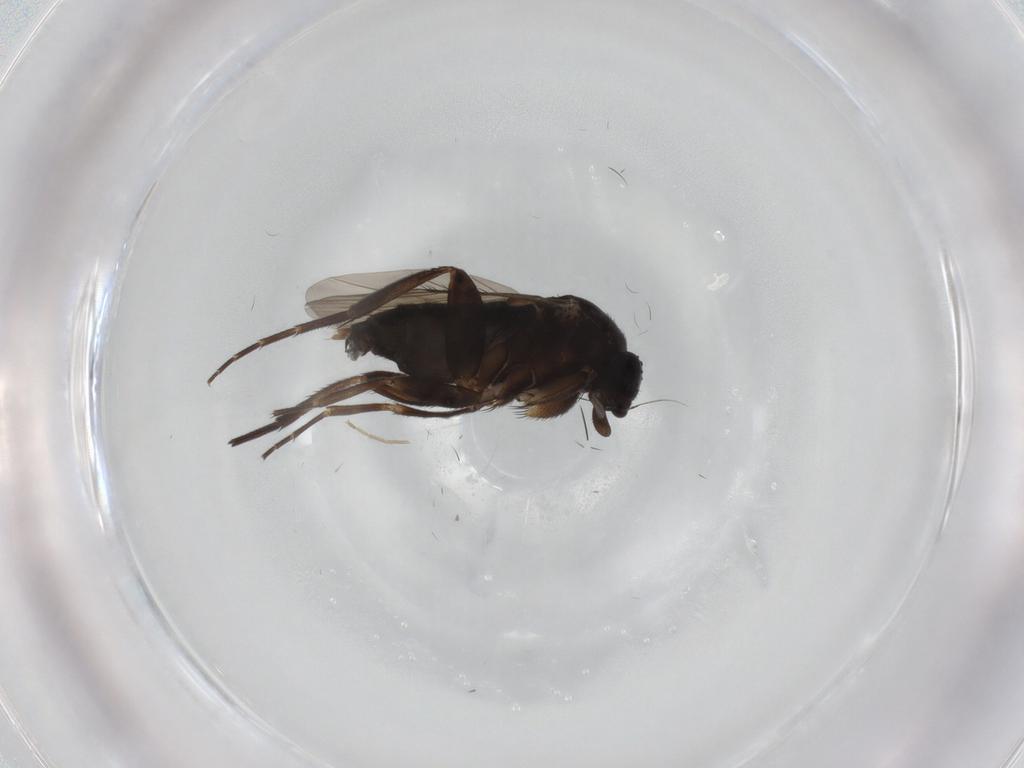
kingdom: Animalia
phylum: Arthropoda
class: Insecta
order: Diptera
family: Phoridae
